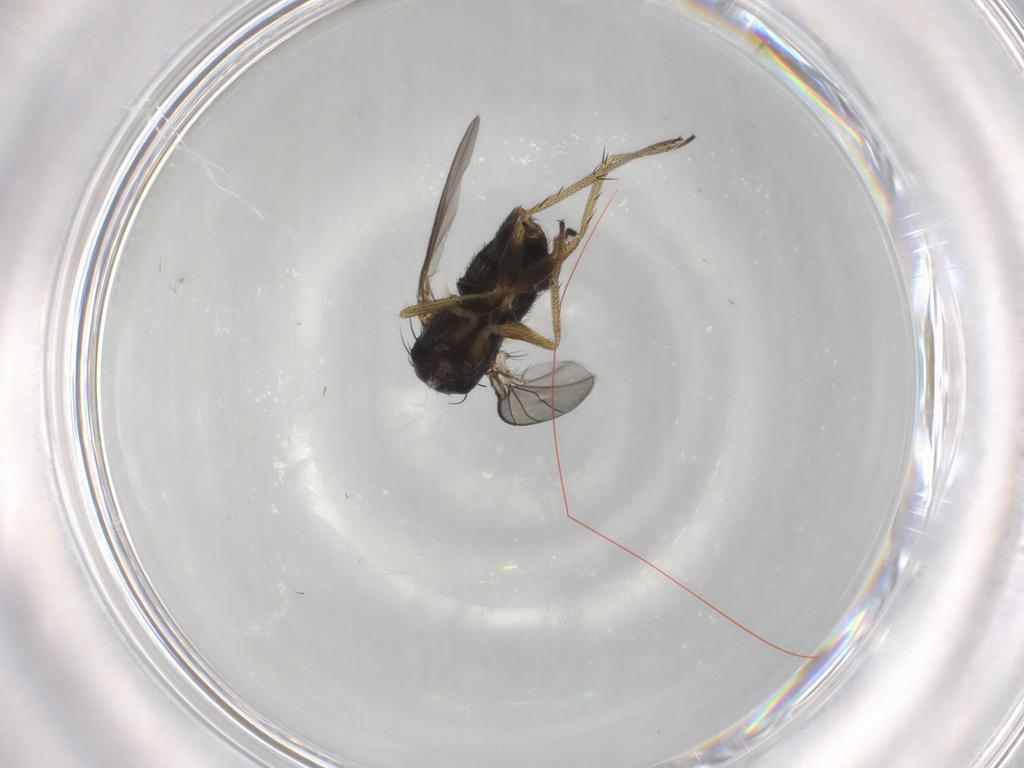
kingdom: Animalia
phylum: Arthropoda
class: Insecta
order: Diptera
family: Dolichopodidae
